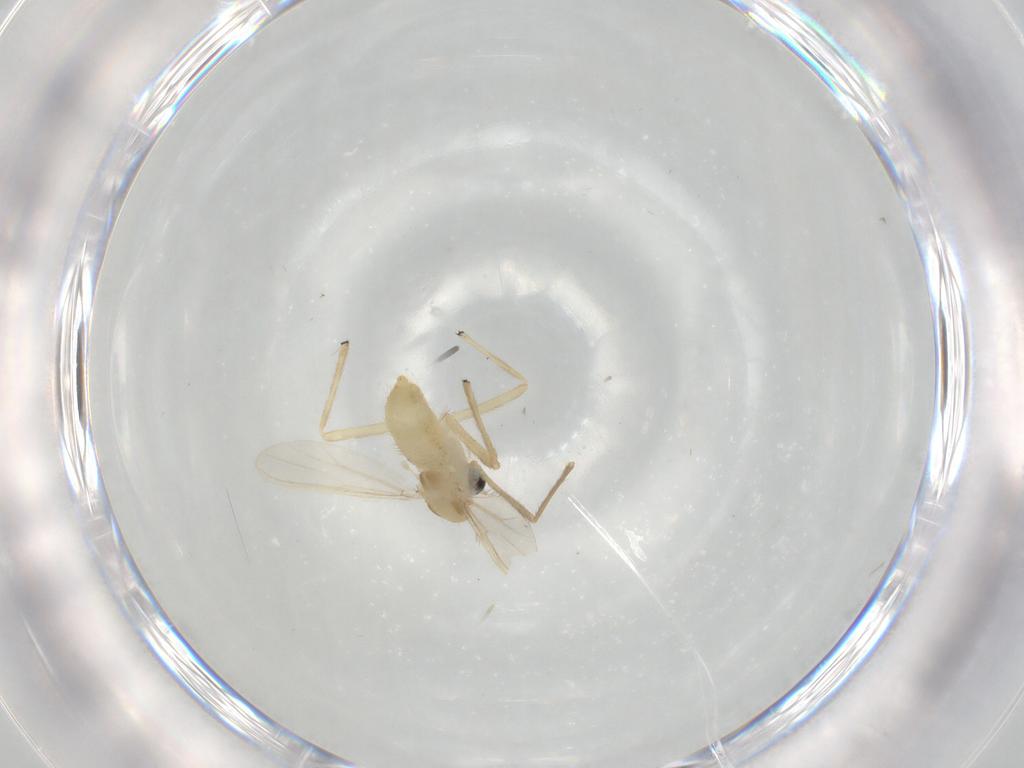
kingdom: Animalia
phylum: Arthropoda
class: Insecta
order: Diptera
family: Chironomidae
